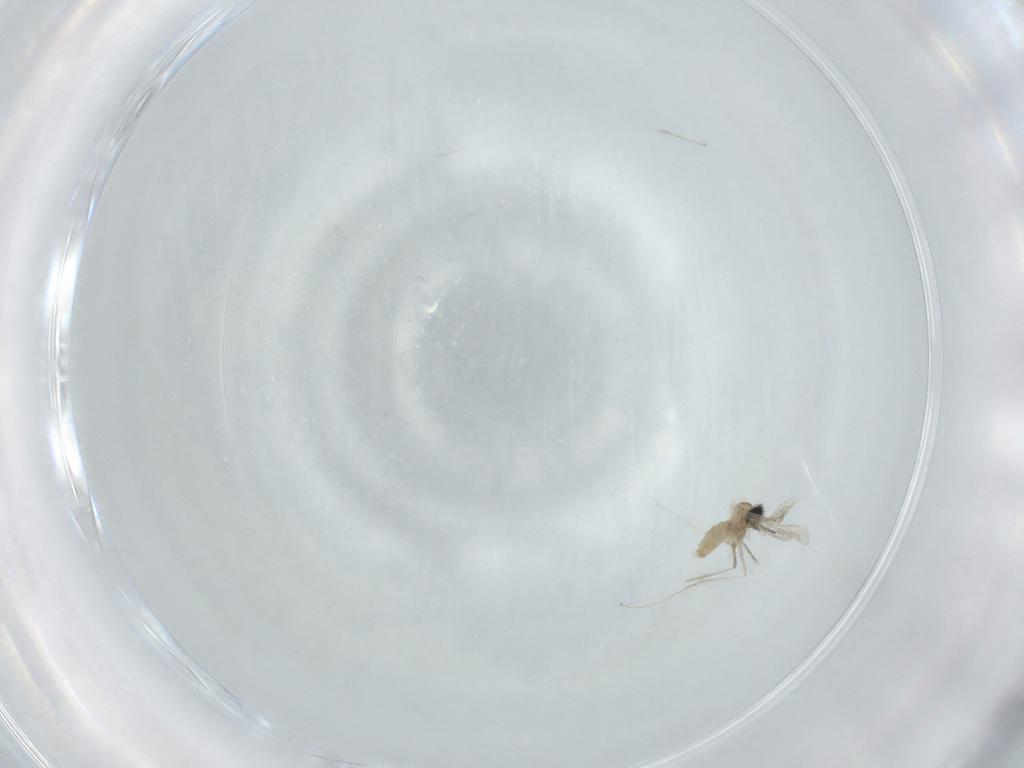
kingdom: Animalia
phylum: Arthropoda
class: Insecta
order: Diptera
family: Cecidomyiidae
